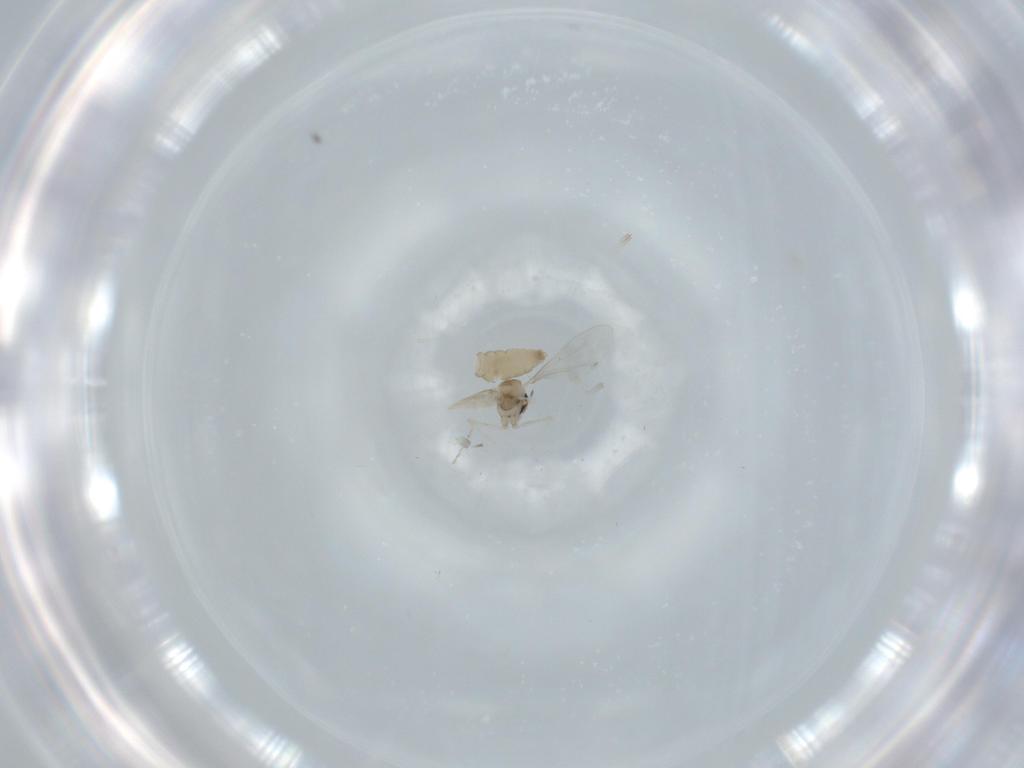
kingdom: Animalia
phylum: Arthropoda
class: Insecta
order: Diptera
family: Cecidomyiidae
